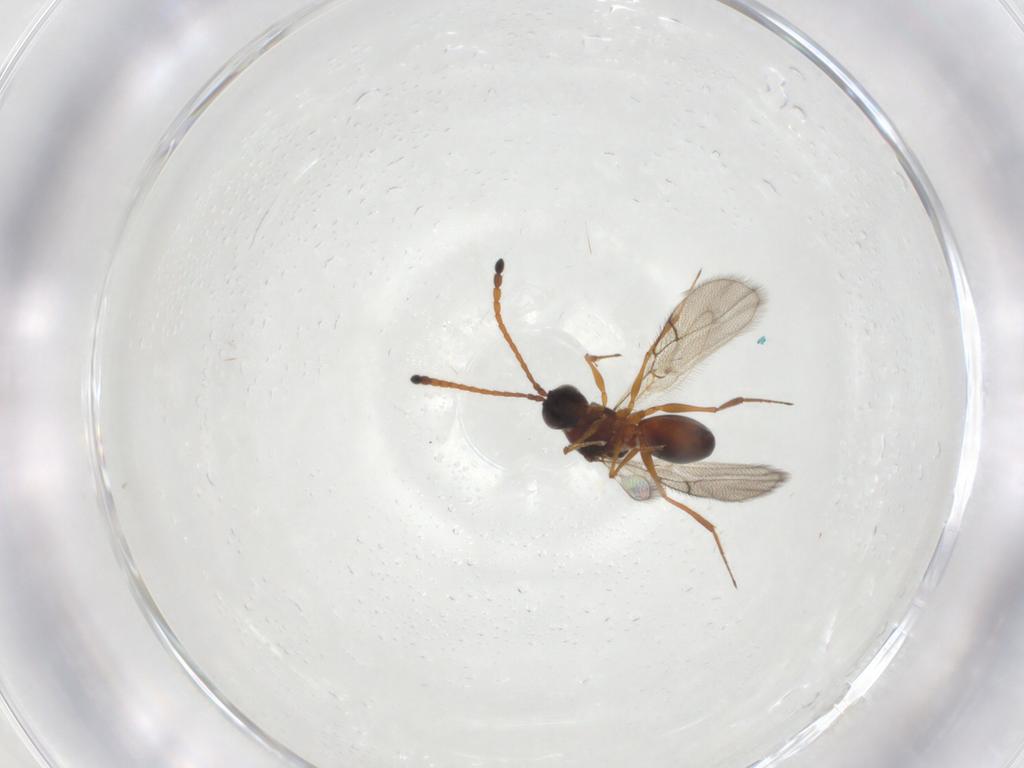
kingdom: Animalia
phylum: Arthropoda
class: Insecta
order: Hymenoptera
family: Figitidae
